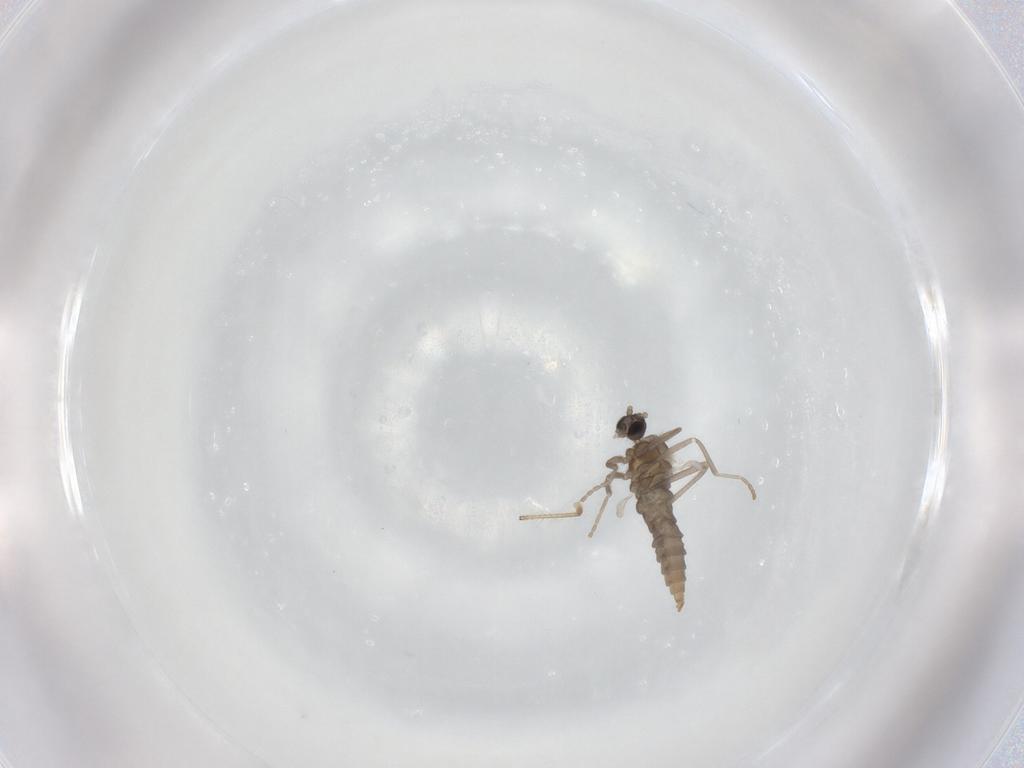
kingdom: Animalia
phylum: Arthropoda
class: Insecta
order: Diptera
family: Cecidomyiidae
